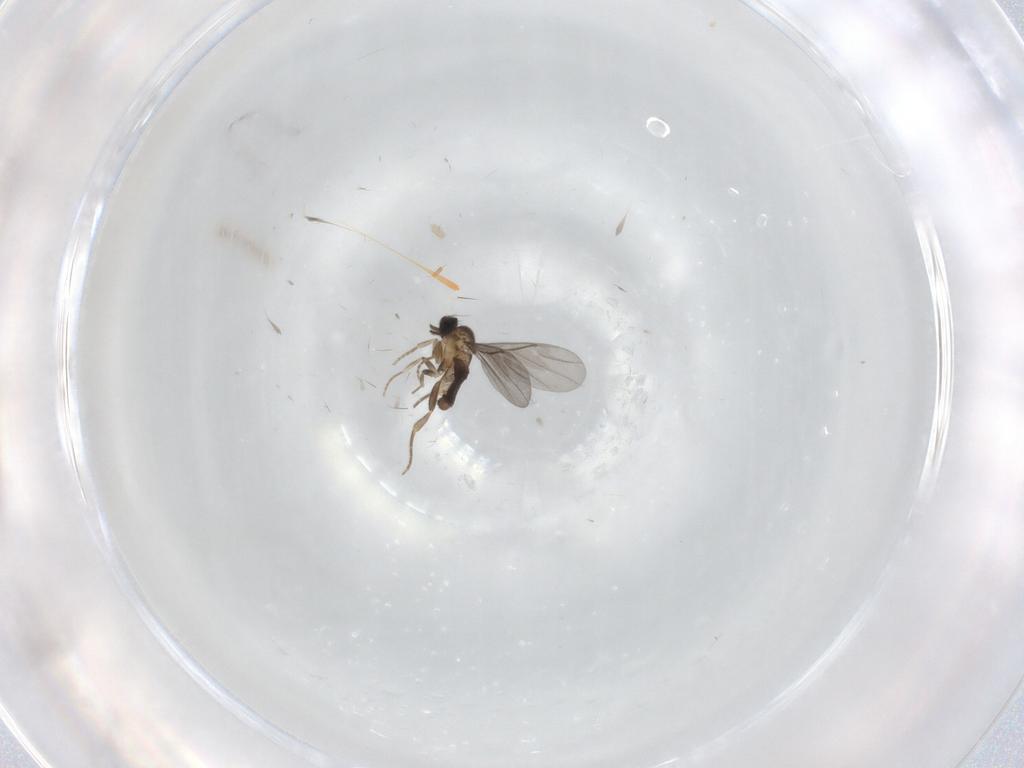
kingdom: Animalia
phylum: Arthropoda
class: Insecta
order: Diptera
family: Phoridae
